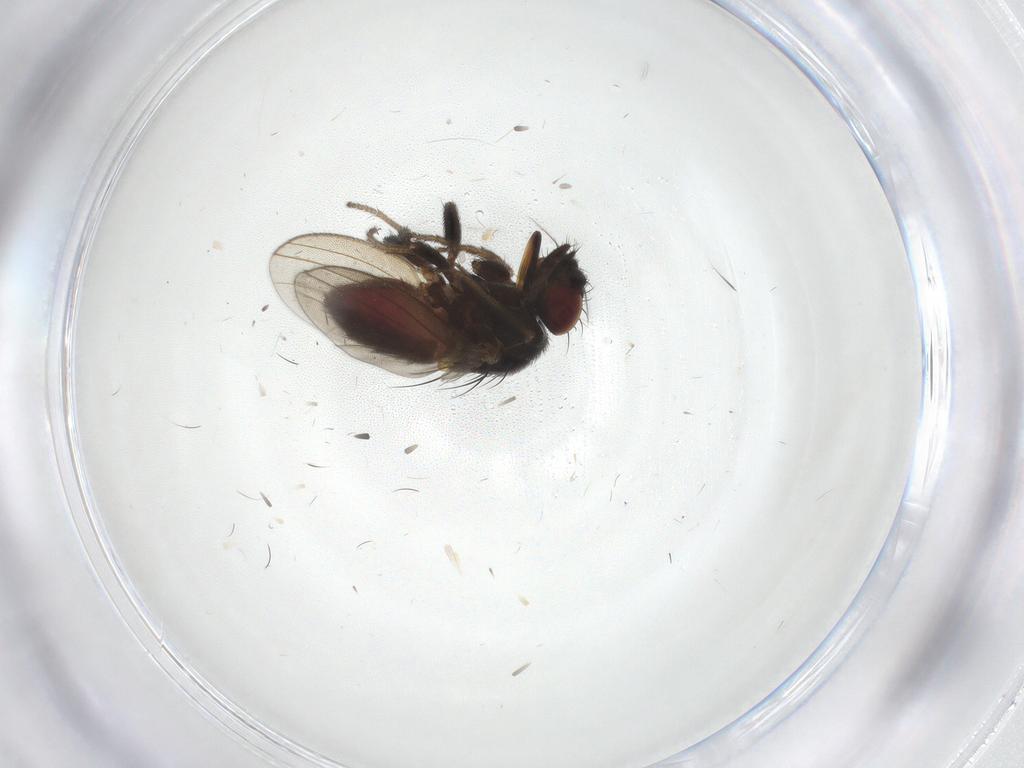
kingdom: Animalia
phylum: Arthropoda
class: Insecta
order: Diptera
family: Milichiidae
